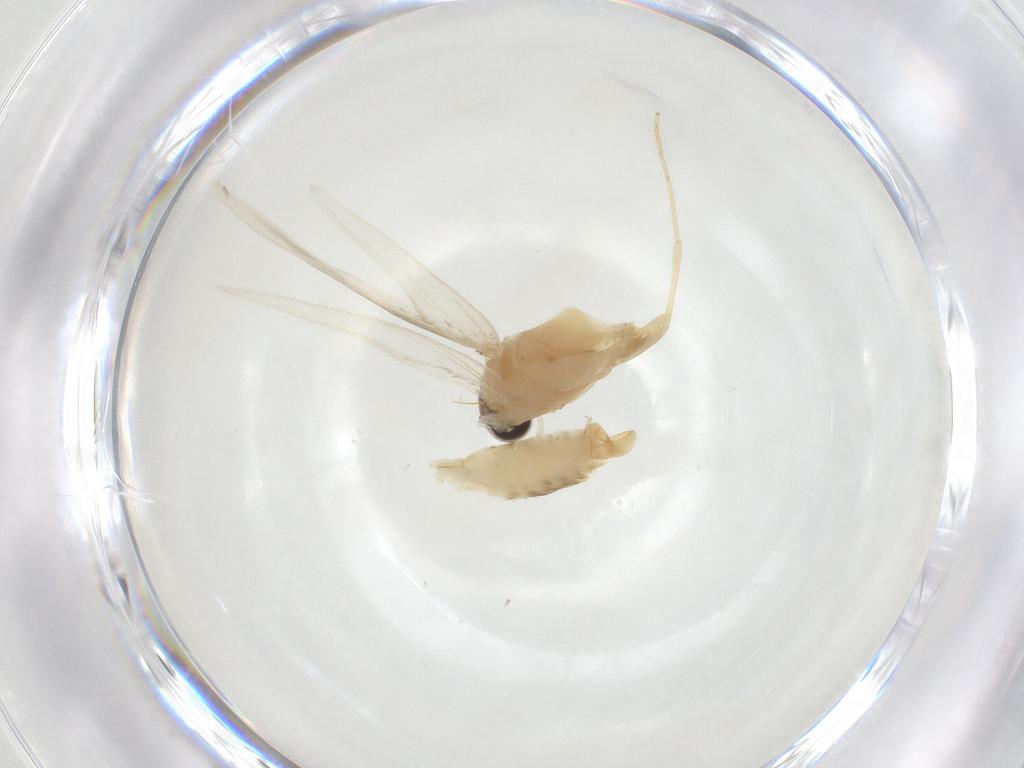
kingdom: Animalia
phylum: Arthropoda
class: Insecta
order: Lepidoptera
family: Tineidae
